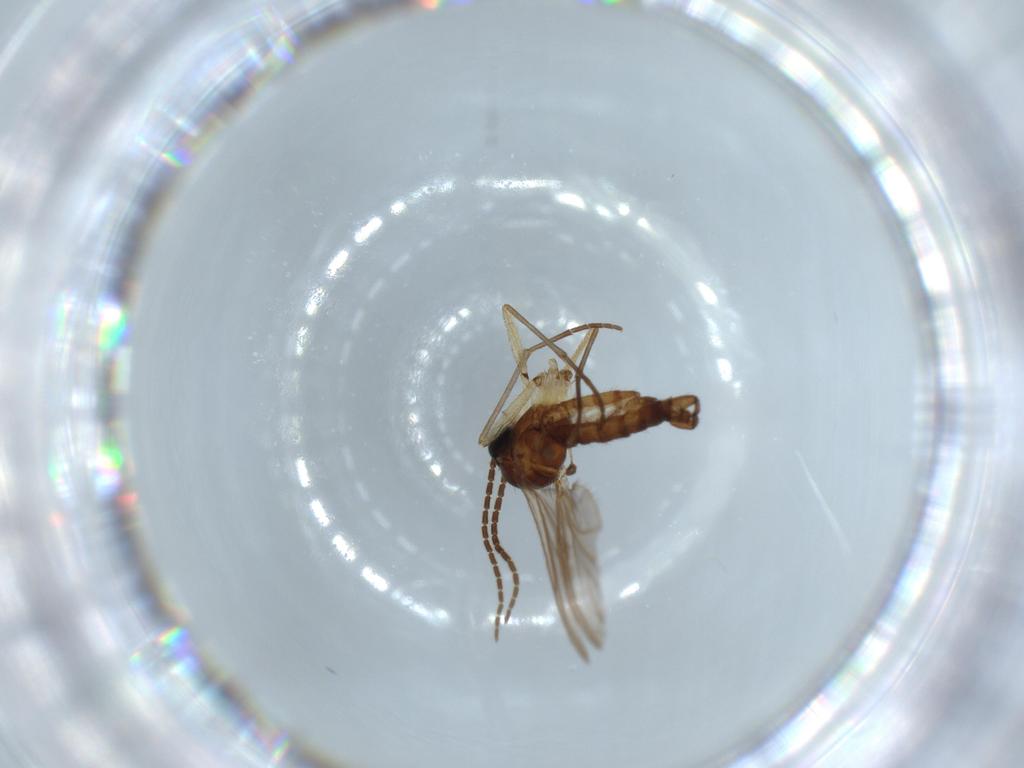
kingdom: Animalia
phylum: Arthropoda
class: Insecta
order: Diptera
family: Sciaridae
